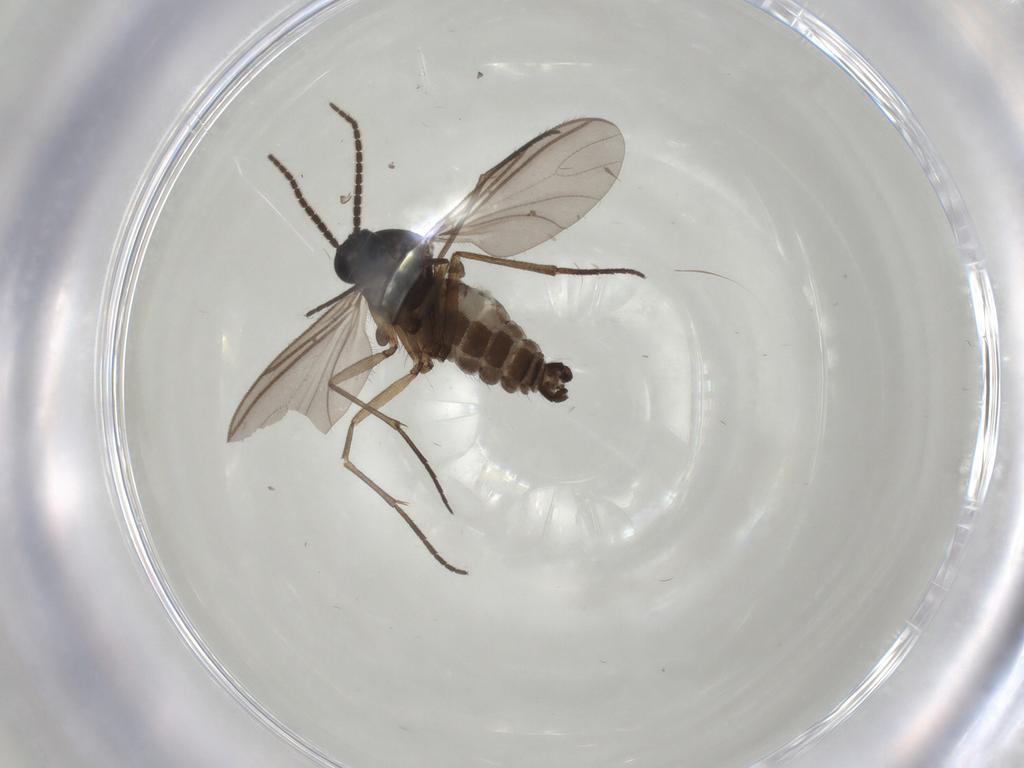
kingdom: Animalia
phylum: Arthropoda
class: Insecta
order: Diptera
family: Sciaridae
